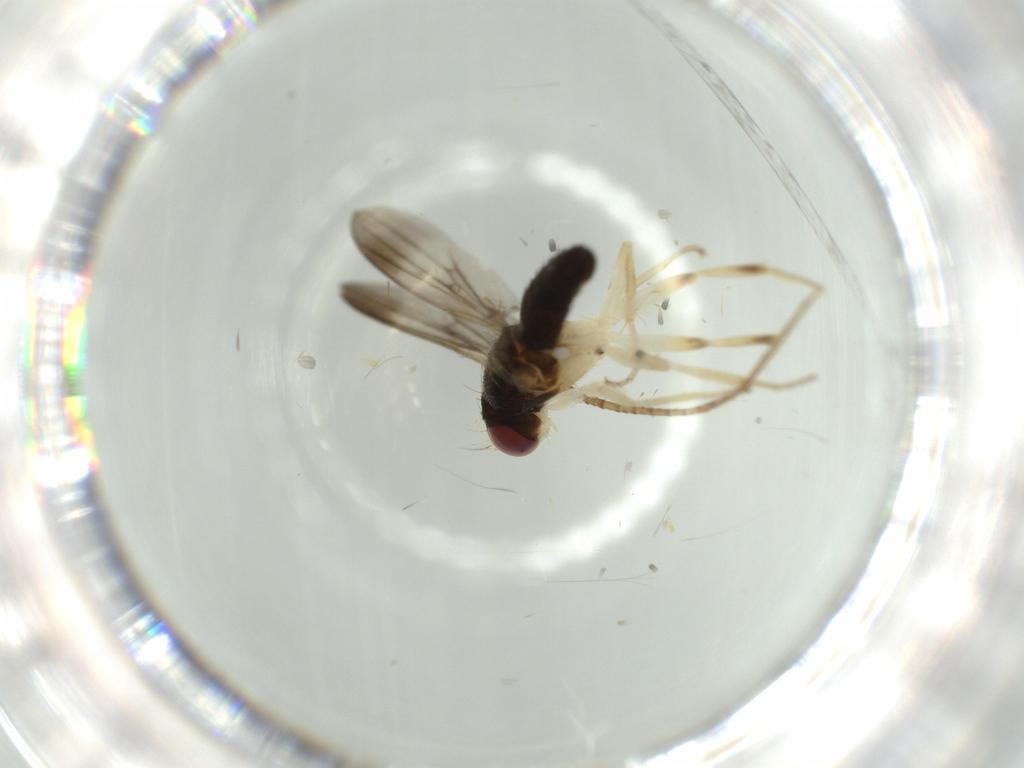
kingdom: Animalia
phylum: Arthropoda
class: Insecta
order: Diptera
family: Clusiidae
